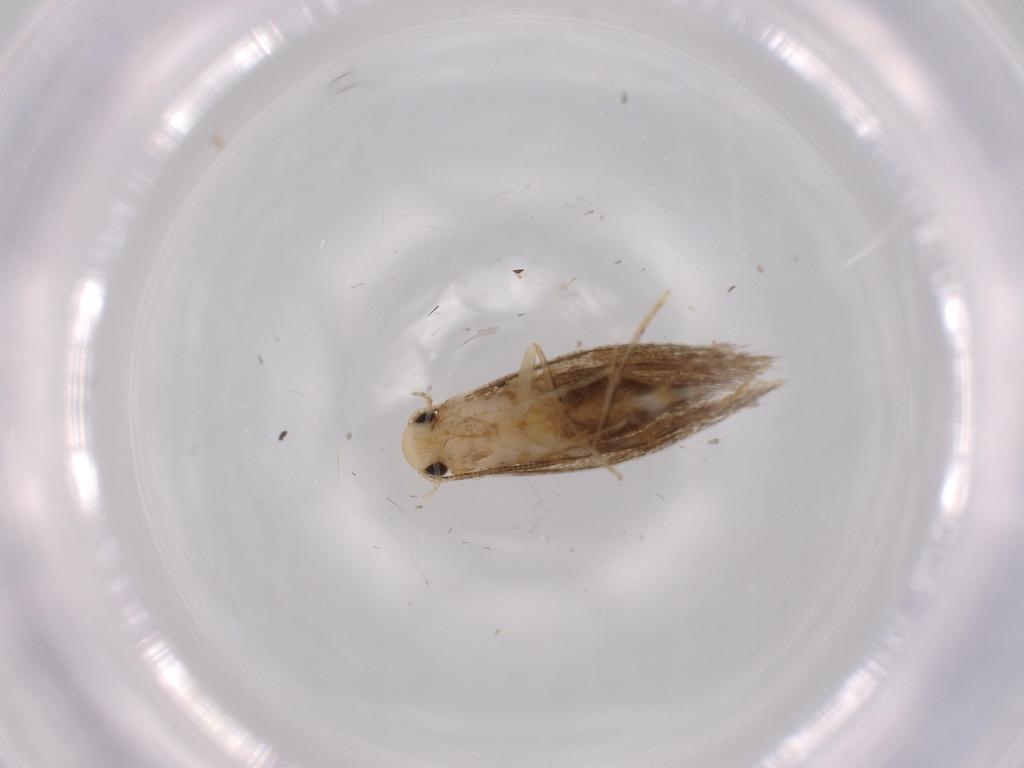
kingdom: Animalia
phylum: Arthropoda
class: Insecta
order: Lepidoptera
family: Tineidae
